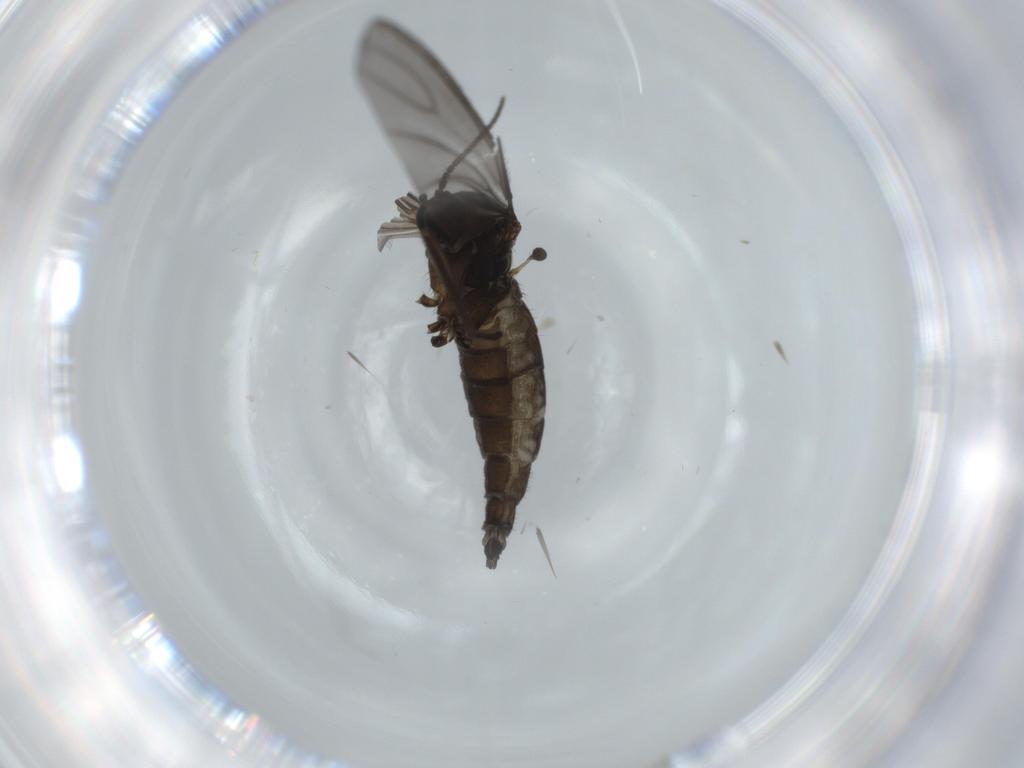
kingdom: Animalia
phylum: Arthropoda
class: Insecta
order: Diptera
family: Sciaridae
